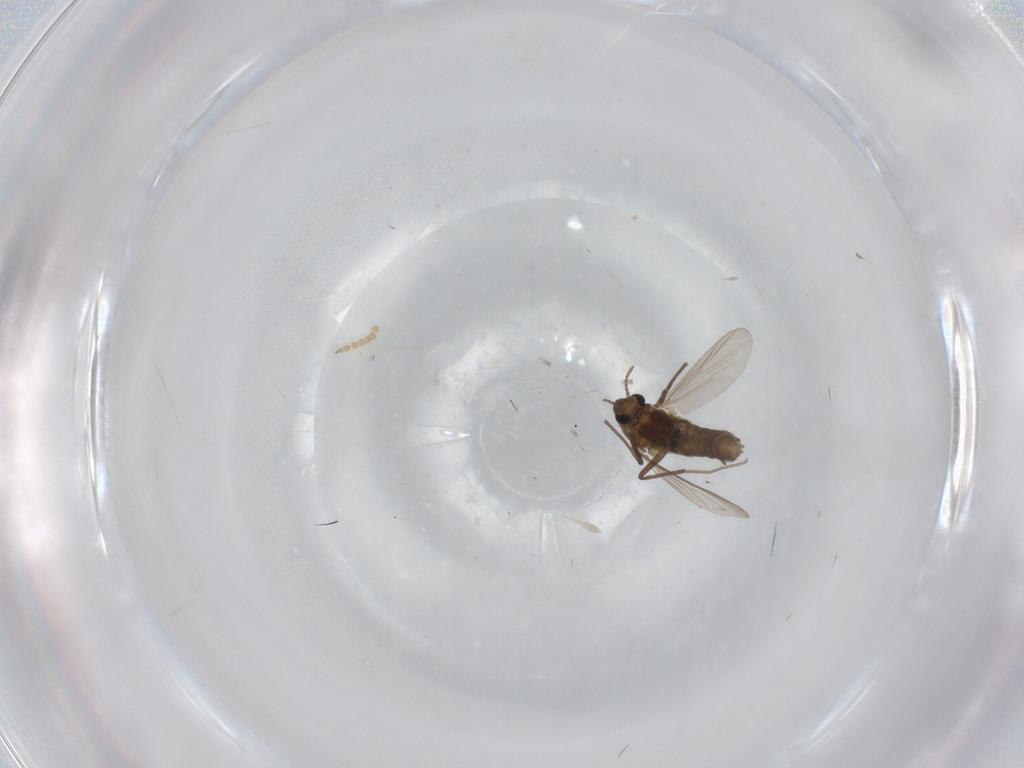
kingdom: Animalia
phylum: Arthropoda
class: Insecta
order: Diptera
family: Chironomidae
